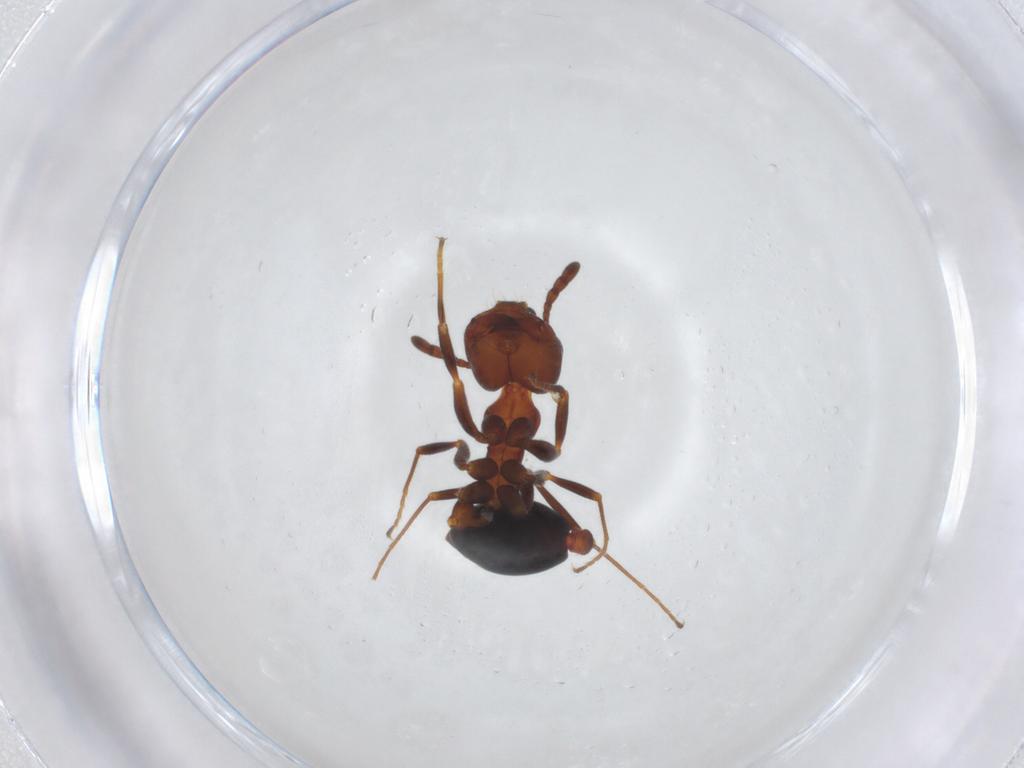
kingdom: Animalia
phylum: Arthropoda
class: Insecta
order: Hymenoptera
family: Formicidae
